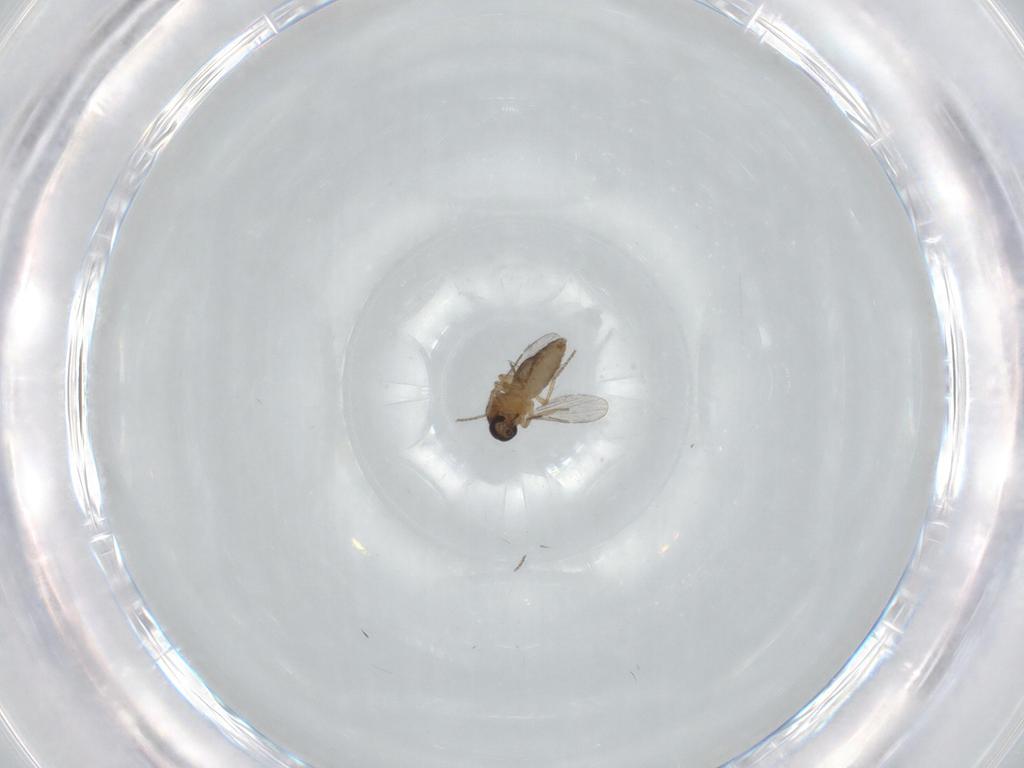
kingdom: Animalia
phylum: Arthropoda
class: Insecta
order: Diptera
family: Ceratopogonidae
